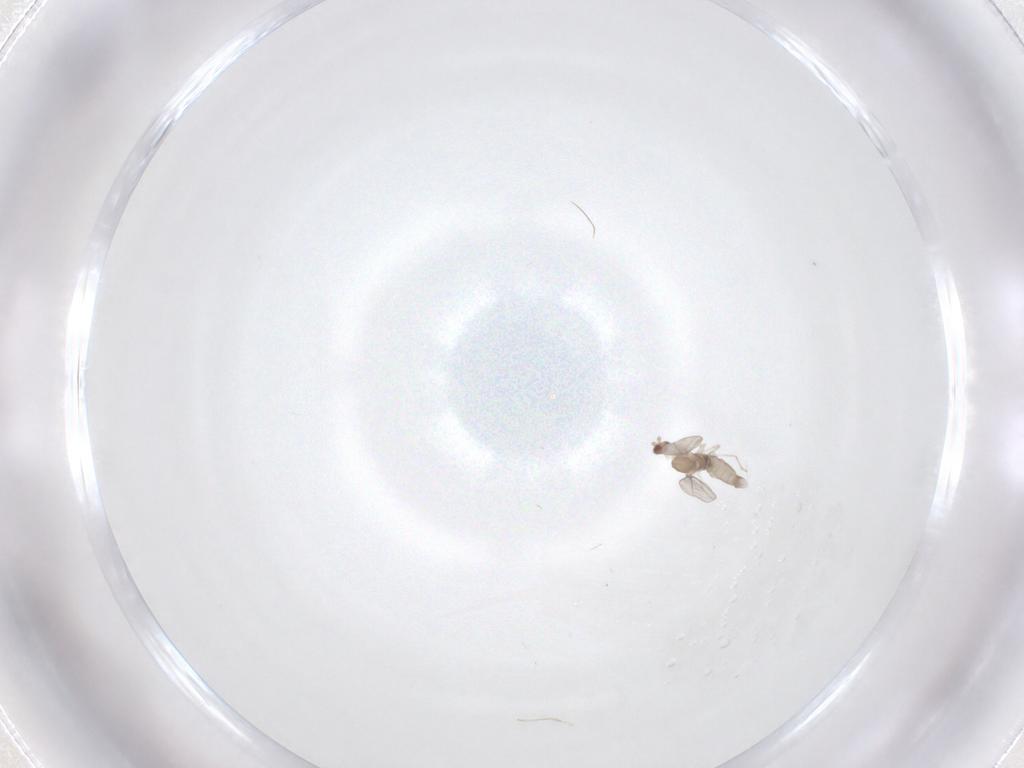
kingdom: Animalia
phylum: Arthropoda
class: Insecta
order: Diptera
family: Cecidomyiidae
